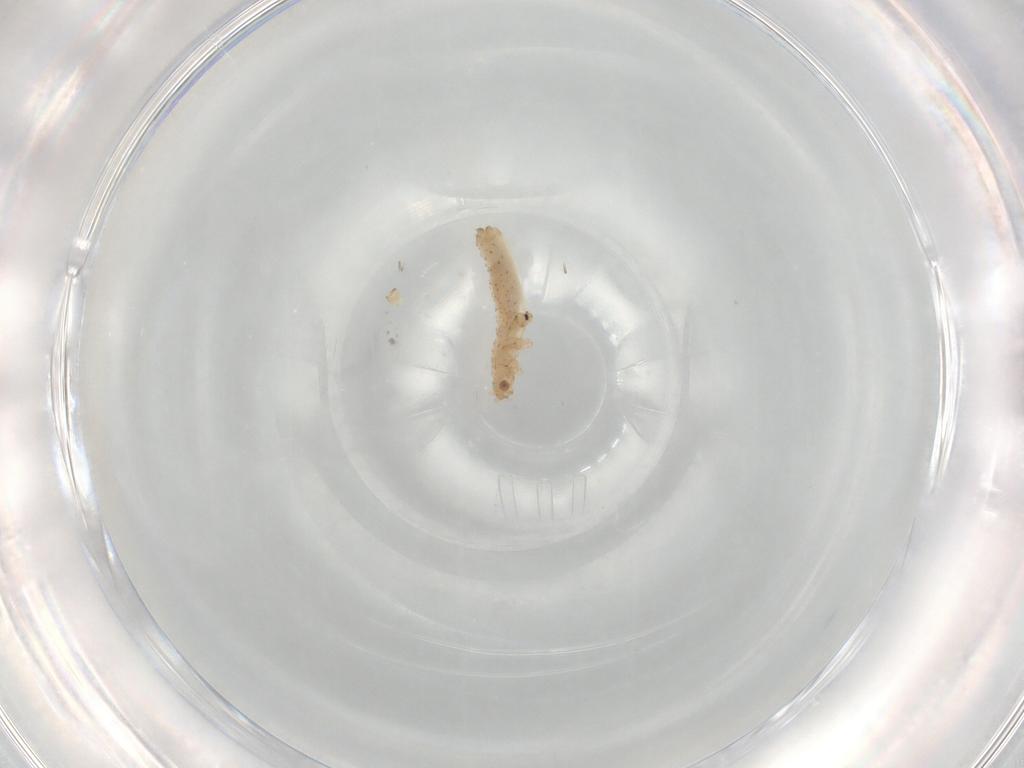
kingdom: Animalia
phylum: Arthropoda
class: Insecta
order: Hemiptera
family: Aphididae
